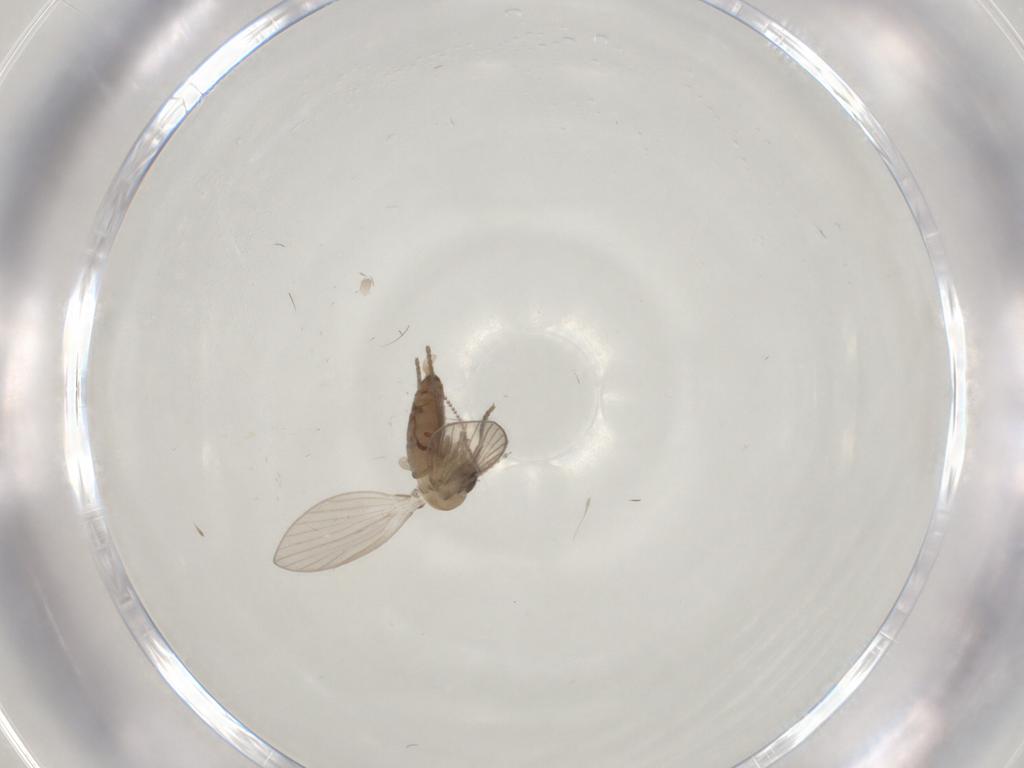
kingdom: Animalia
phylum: Arthropoda
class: Insecta
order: Diptera
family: Psychodidae
